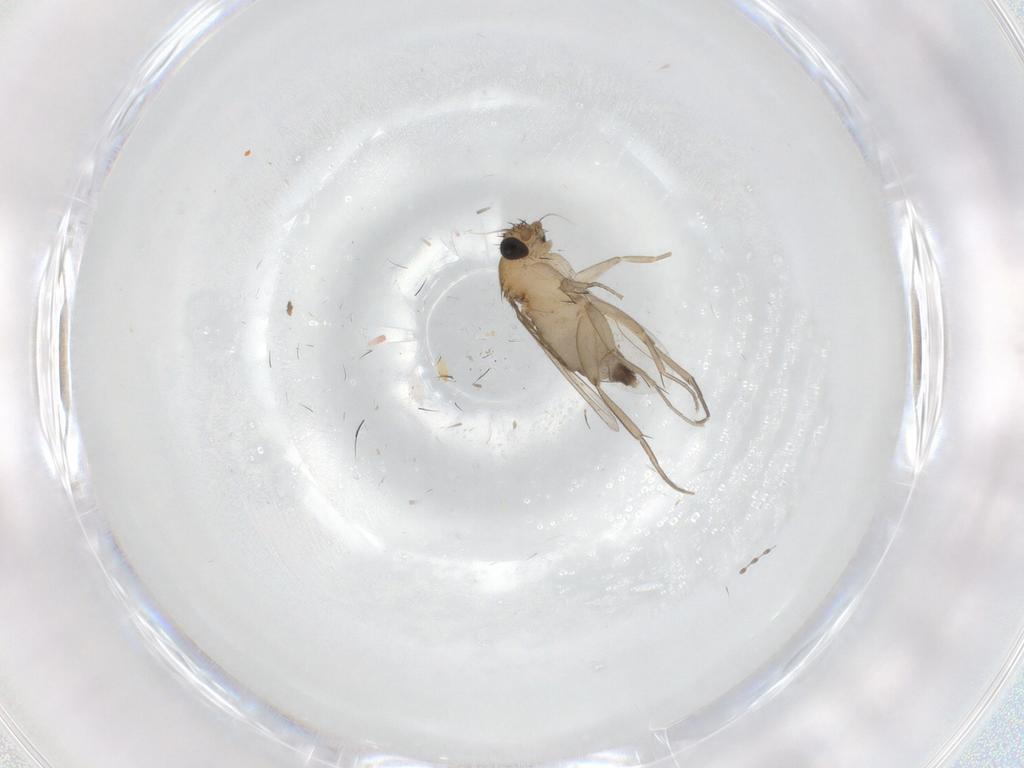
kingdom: Animalia
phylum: Arthropoda
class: Insecta
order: Diptera
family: Phoridae
